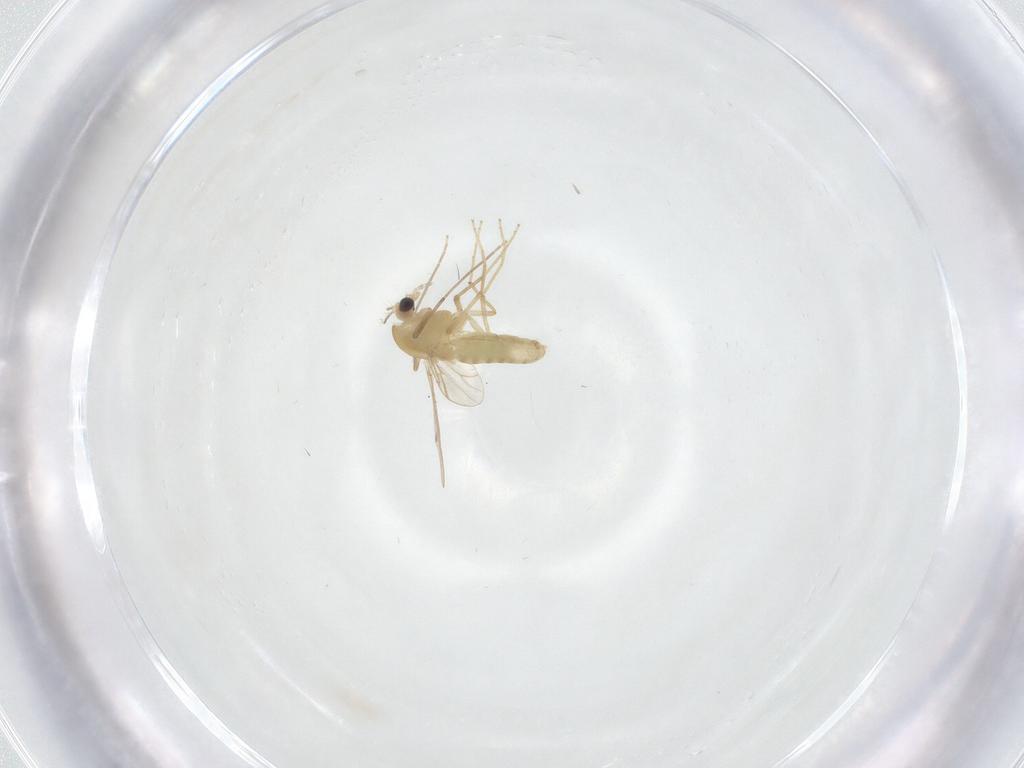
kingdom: Animalia
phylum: Arthropoda
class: Insecta
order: Diptera
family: Chironomidae
